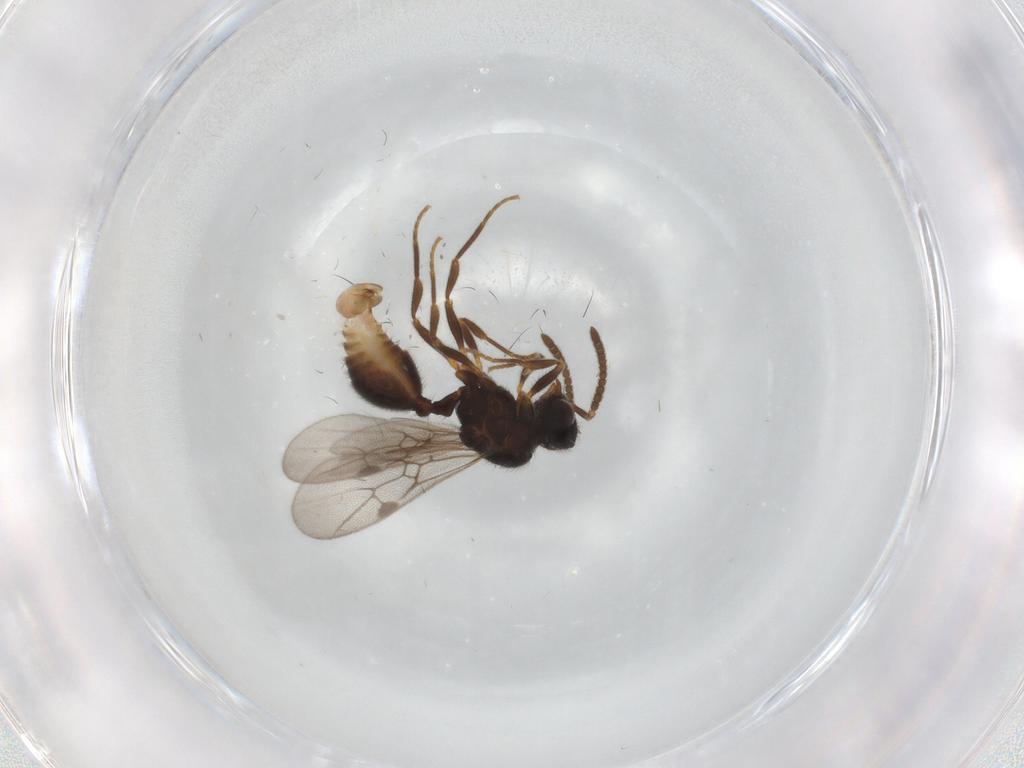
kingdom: Animalia
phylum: Arthropoda
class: Insecta
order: Hymenoptera
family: Formicidae
